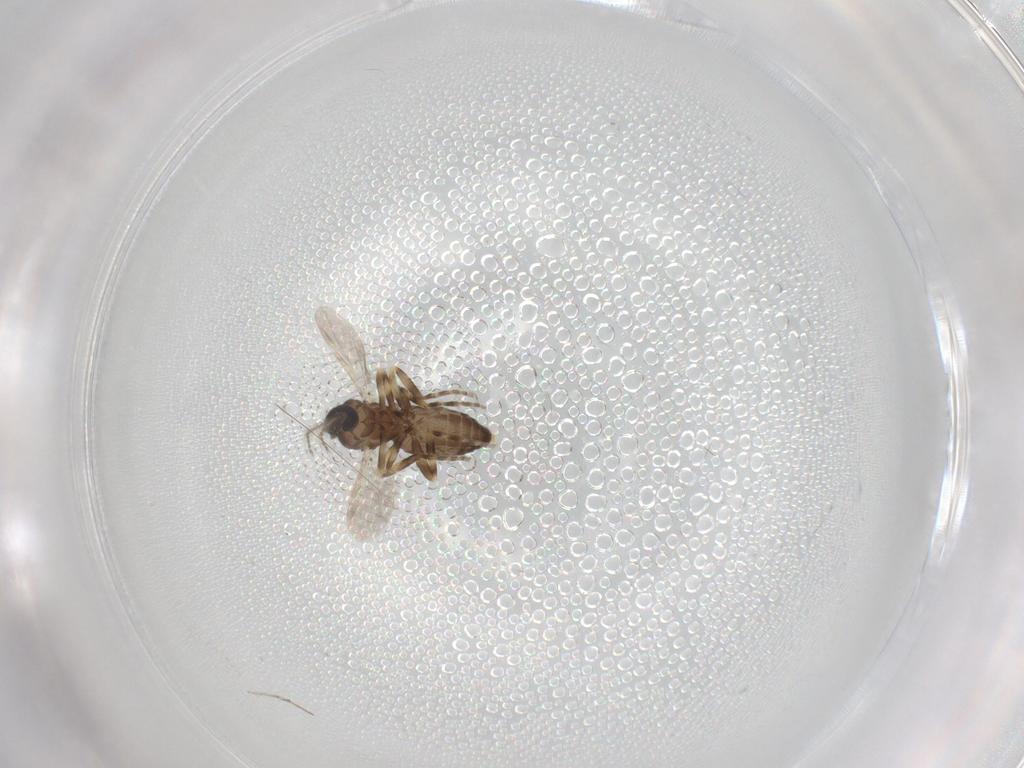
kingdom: Animalia
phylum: Arthropoda
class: Insecta
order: Diptera
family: Ceratopogonidae
